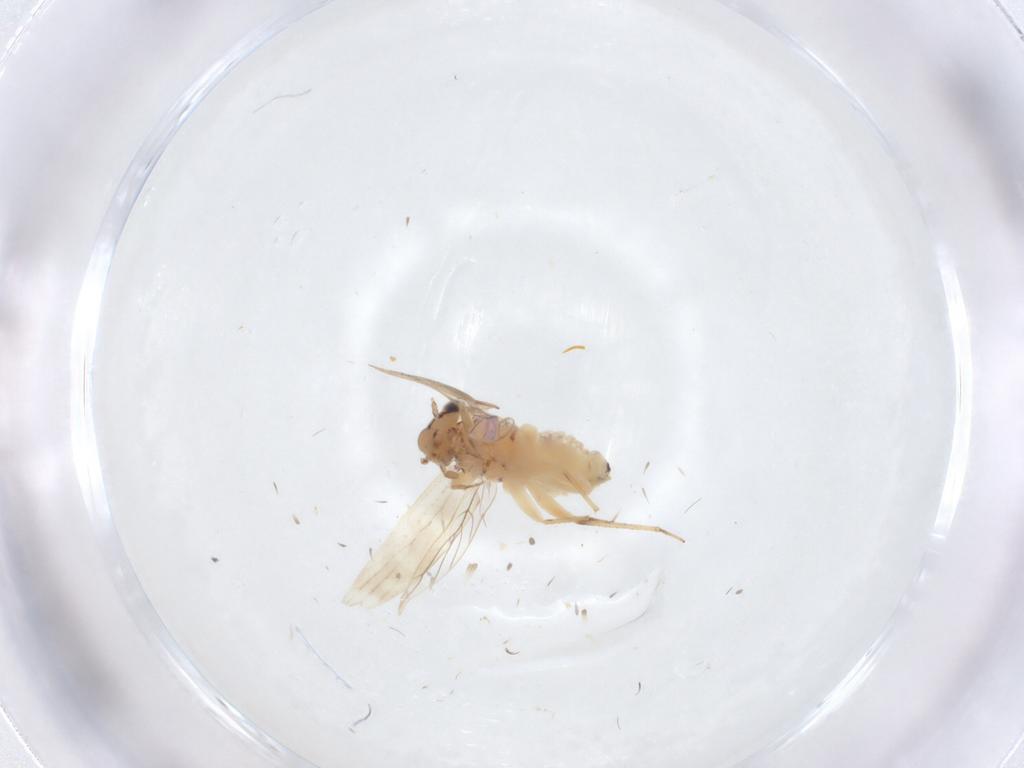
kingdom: Animalia
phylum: Arthropoda
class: Insecta
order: Psocodea
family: Lepidopsocidae
